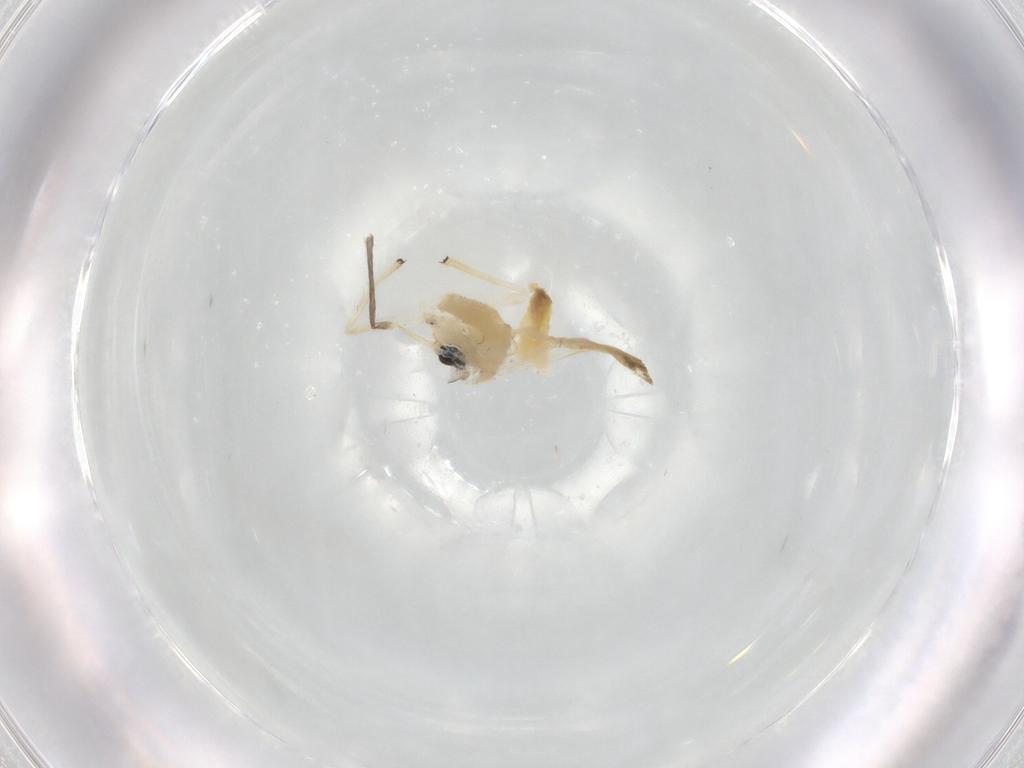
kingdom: Animalia
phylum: Arthropoda
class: Insecta
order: Diptera
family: Chironomidae
